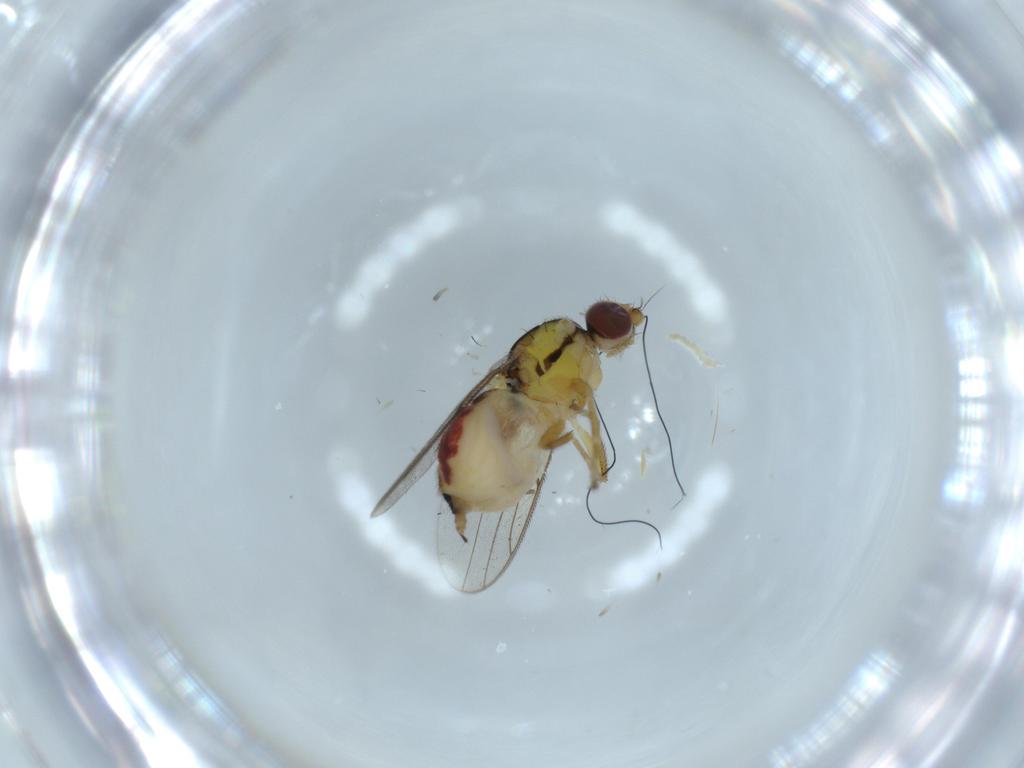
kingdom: Animalia
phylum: Arthropoda
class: Insecta
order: Diptera
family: Chloropidae
